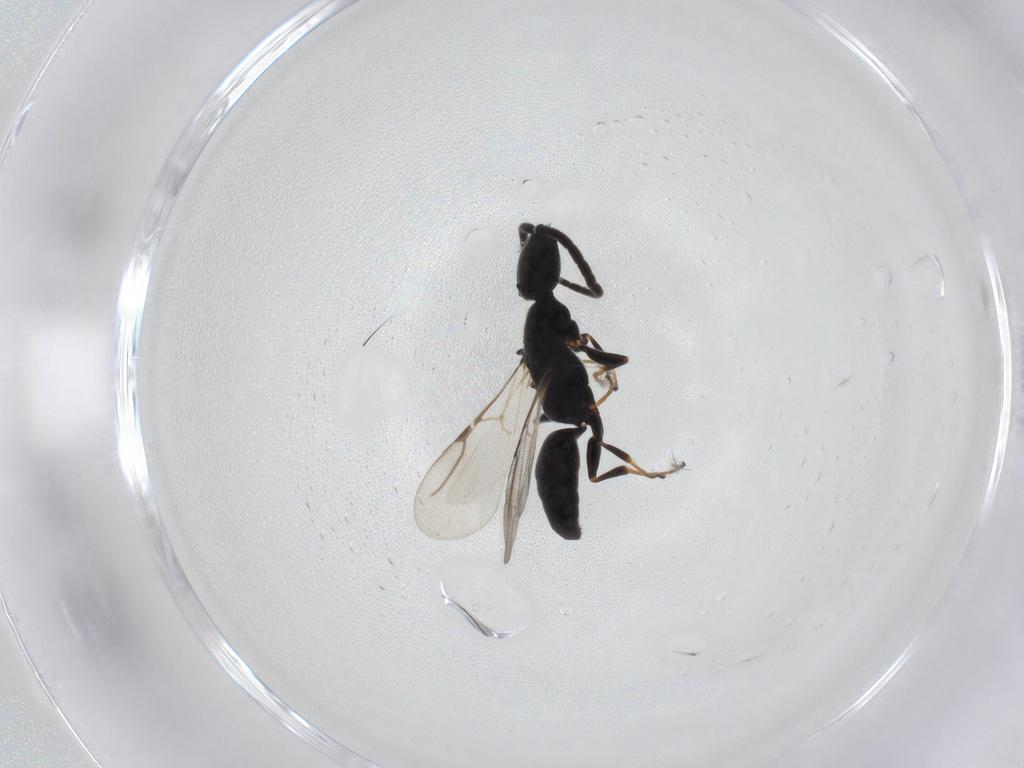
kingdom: Animalia
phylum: Arthropoda
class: Insecta
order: Hymenoptera
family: Bethylidae
